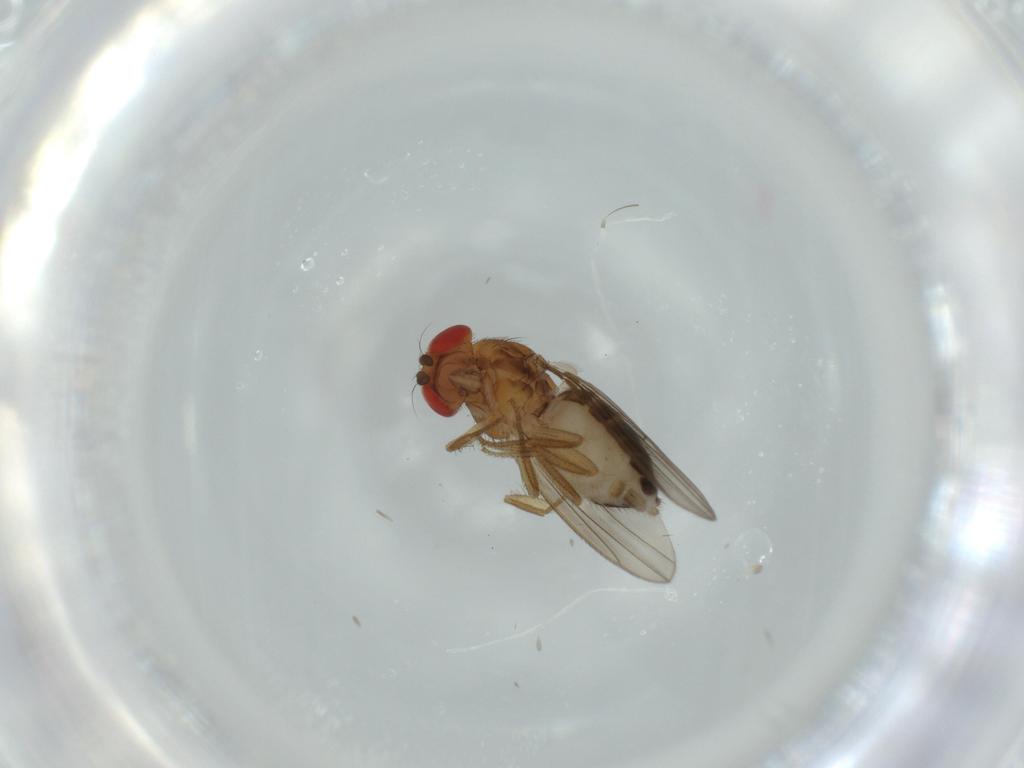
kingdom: Animalia
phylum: Arthropoda
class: Insecta
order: Diptera
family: Drosophilidae
